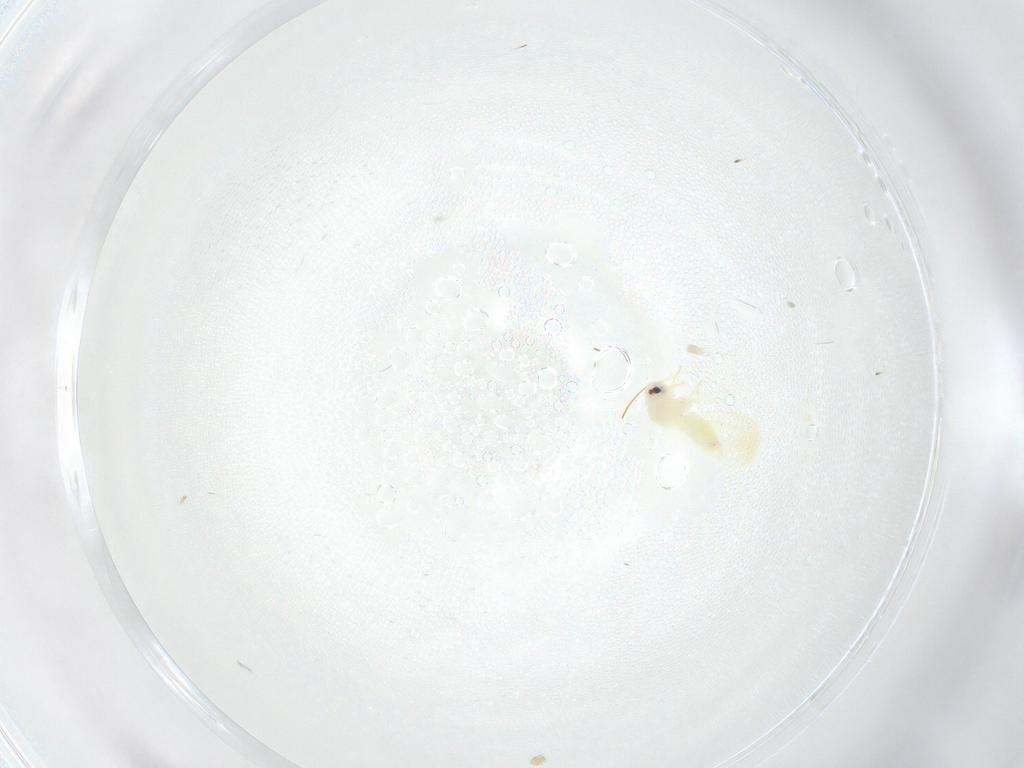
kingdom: Animalia
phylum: Arthropoda
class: Insecta
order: Hemiptera
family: Aleyrodidae
